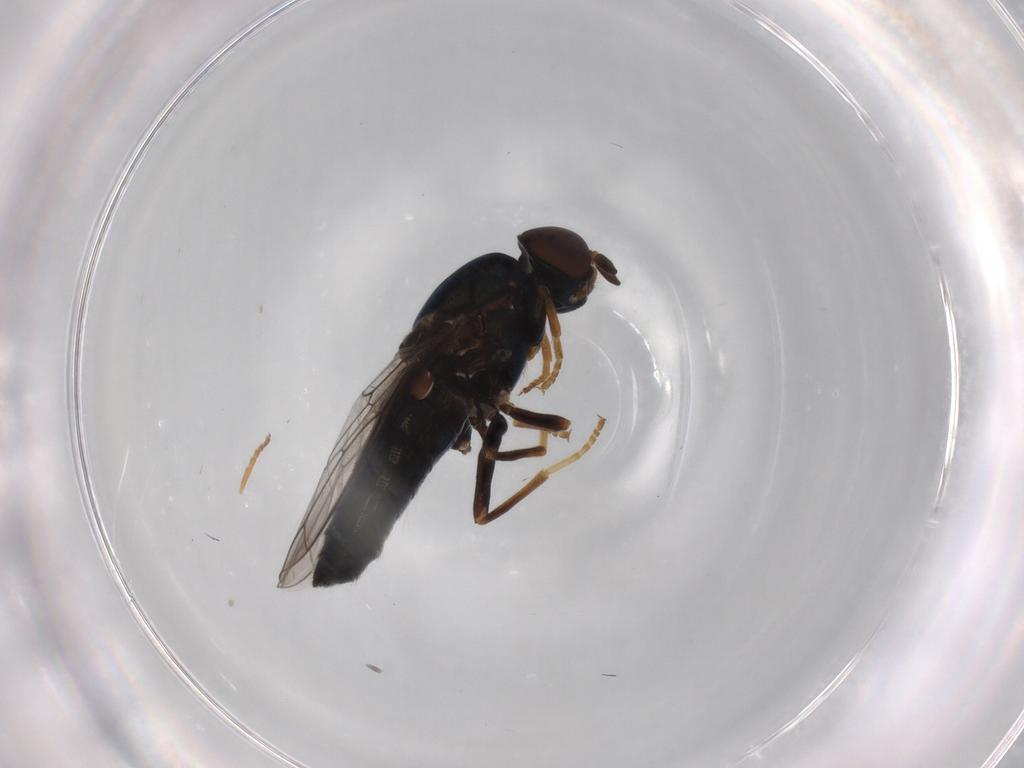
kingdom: Animalia
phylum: Arthropoda
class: Insecta
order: Diptera
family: Scenopinidae
